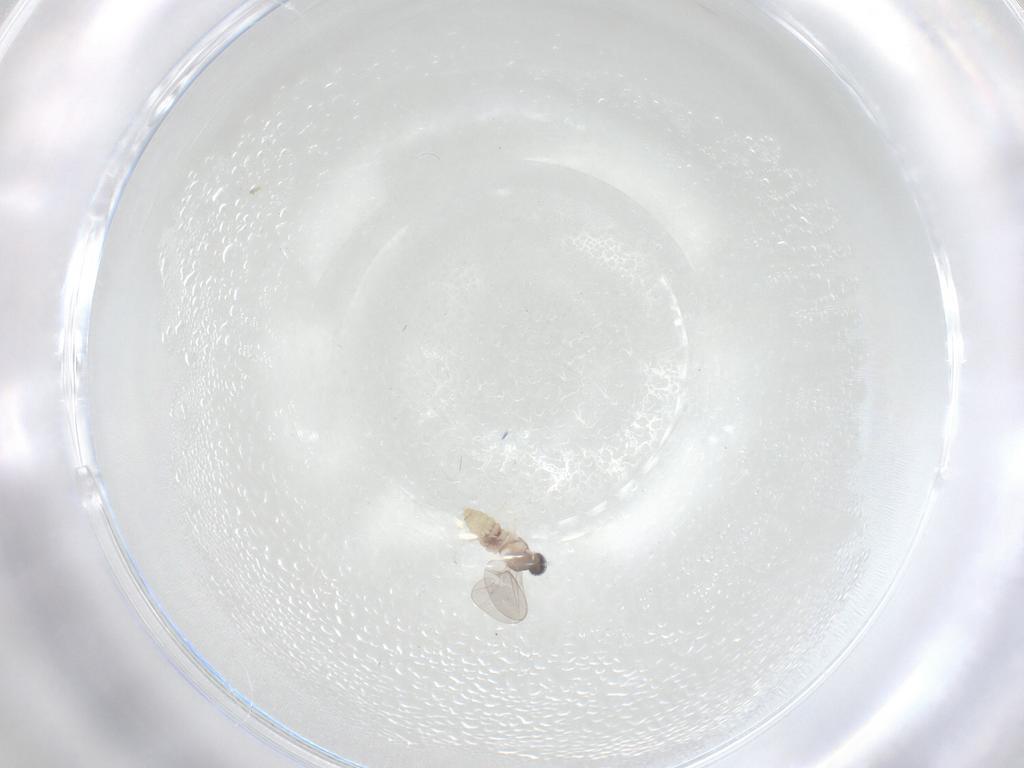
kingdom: Animalia
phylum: Arthropoda
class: Insecta
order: Diptera
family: Cecidomyiidae
